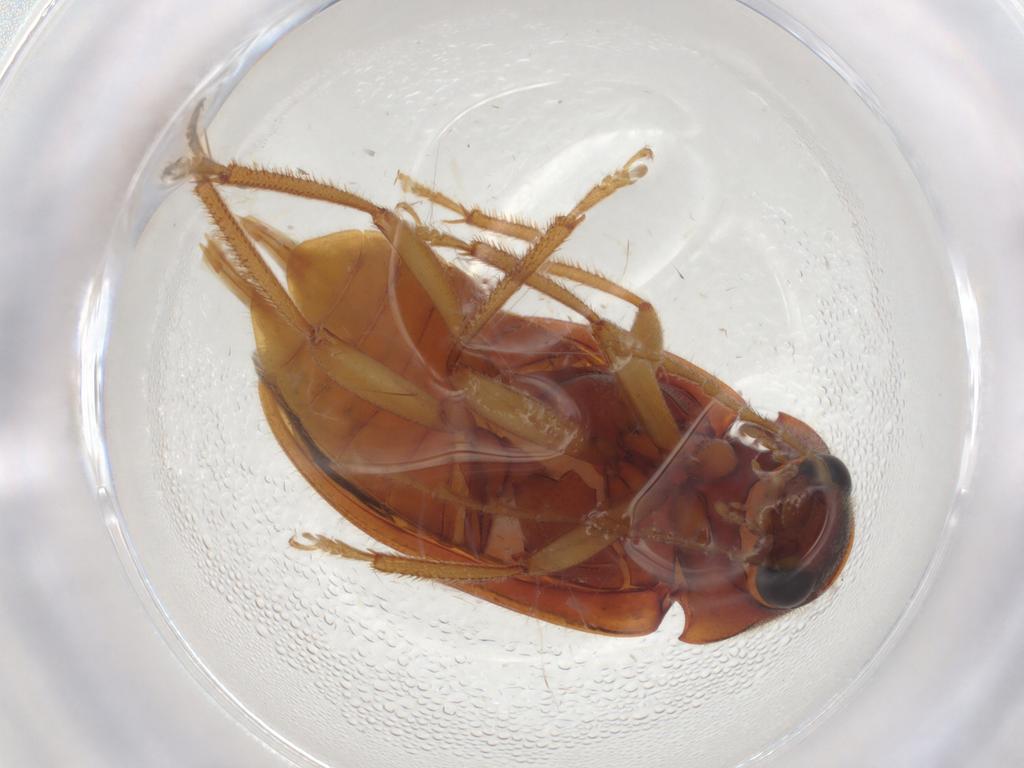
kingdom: Animalia
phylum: Arthropoda
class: Insecta
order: Coleoptera
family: Ptilodactylidae
